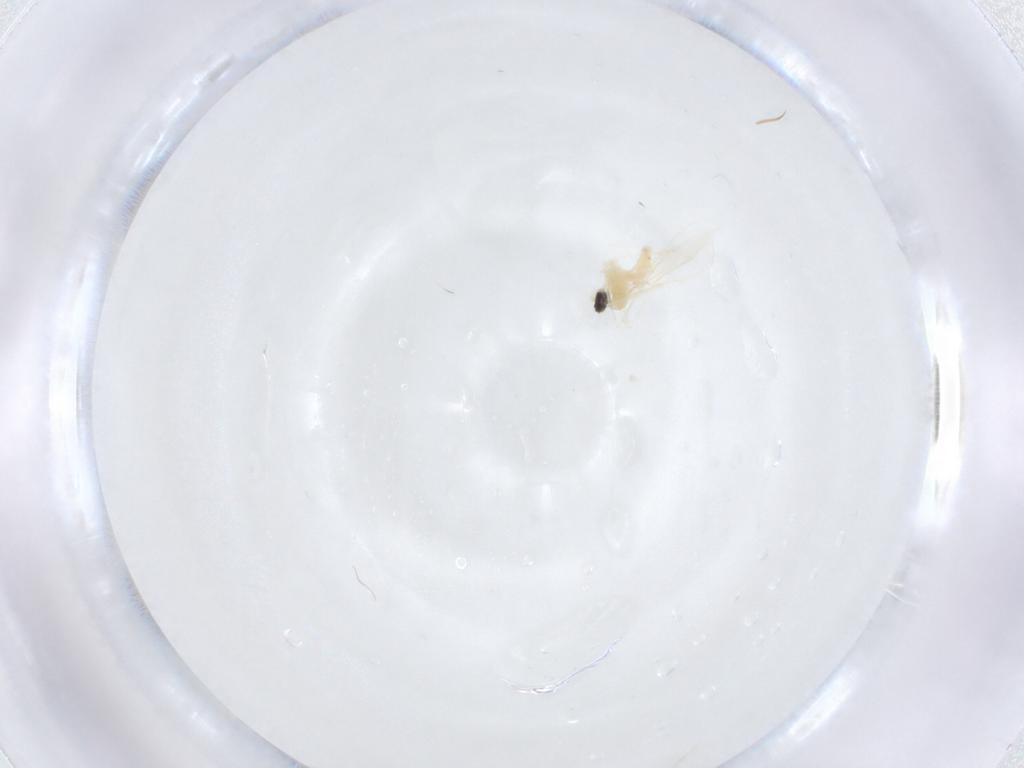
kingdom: Animalia
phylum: Arthropoda
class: Insecta
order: Diptera
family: Cecidomyiidae
